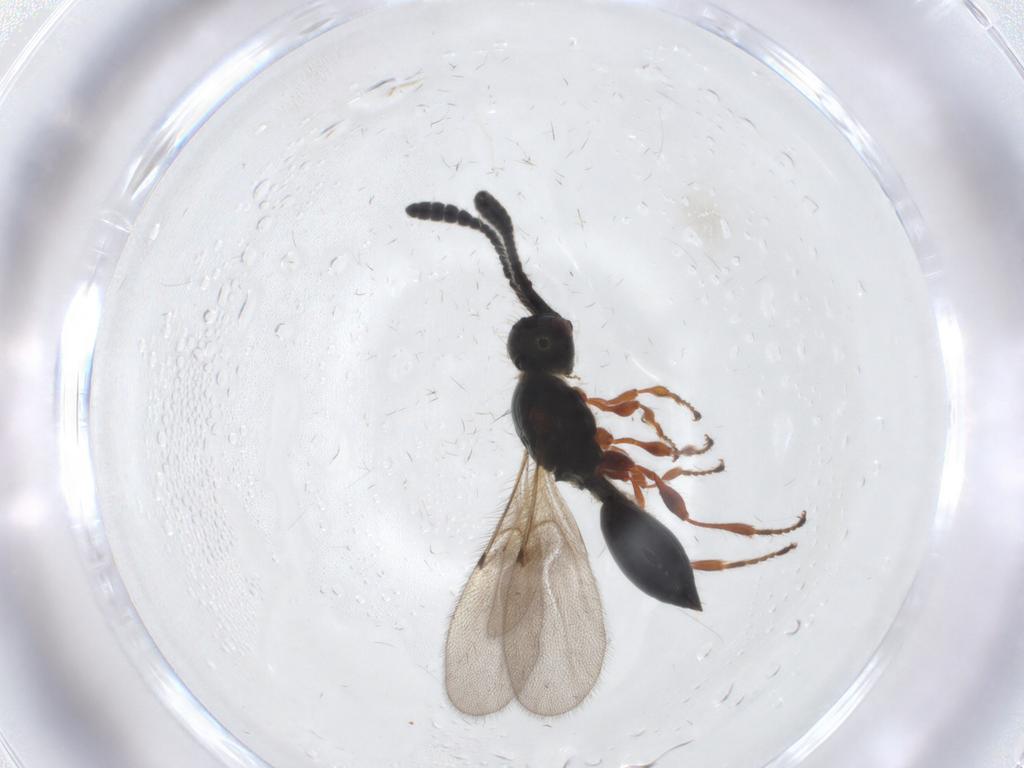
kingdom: Animalia
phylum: Arthropoda
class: Insecta
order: Hymenoptera
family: Diapriidae
